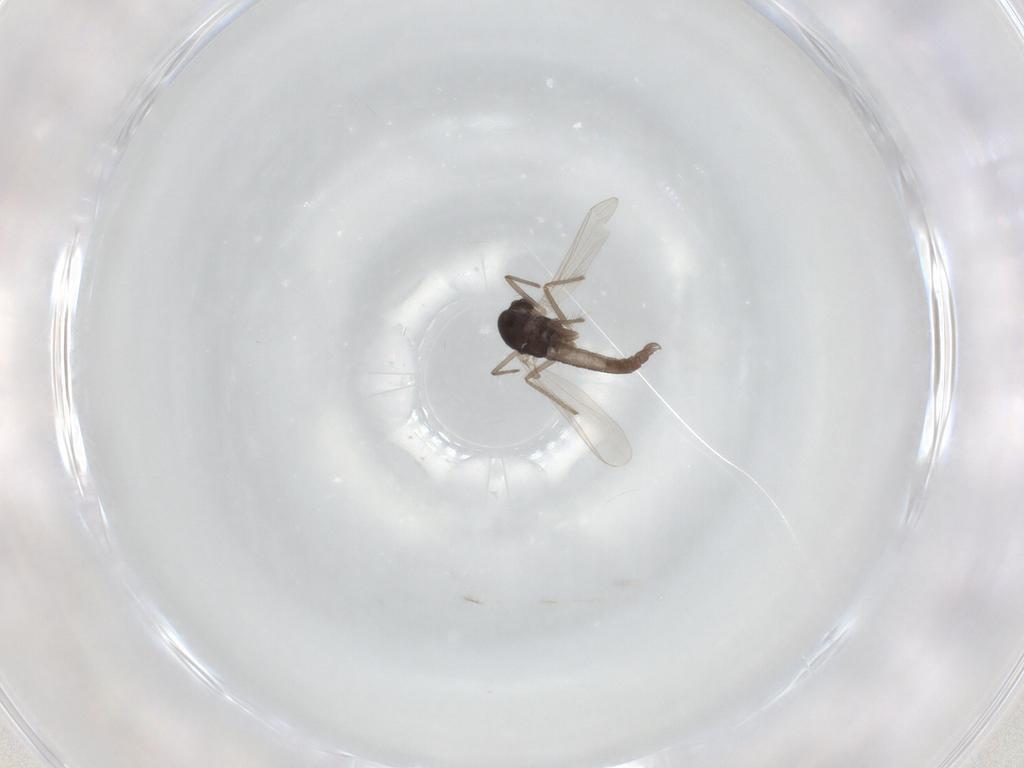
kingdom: Animalia
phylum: Arthropoda
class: Insecta
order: Diptera
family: Chironomidae
